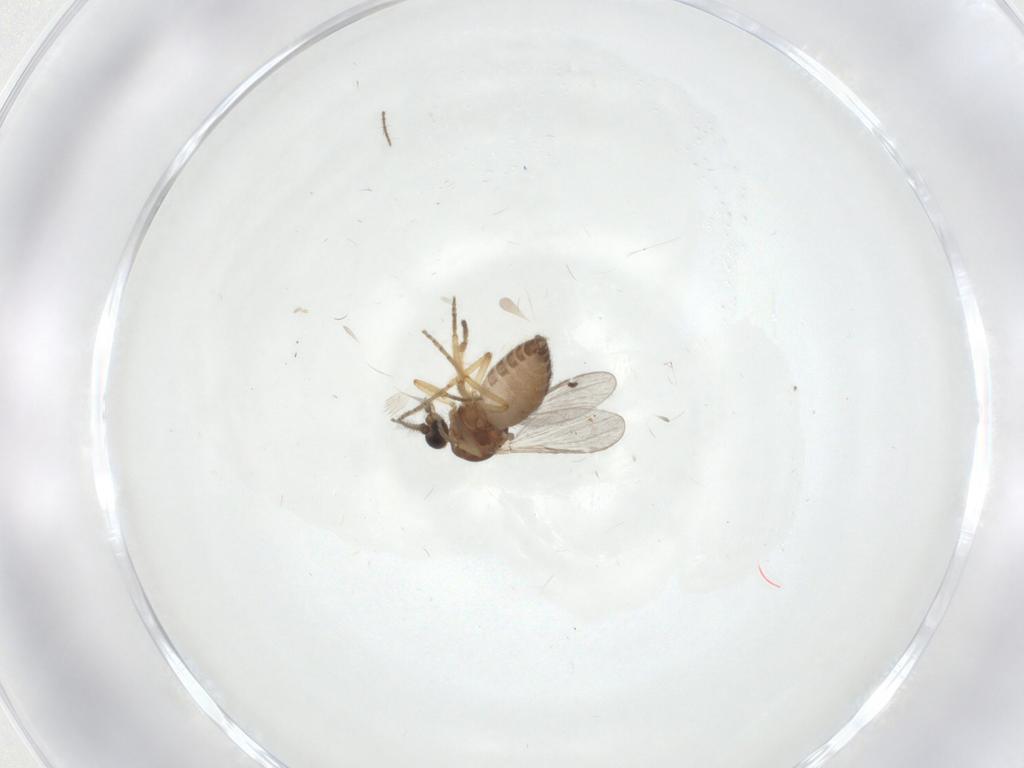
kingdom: Animalia
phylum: Arthropoda
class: Insecta
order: Diptera
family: Ceratopogonidae
